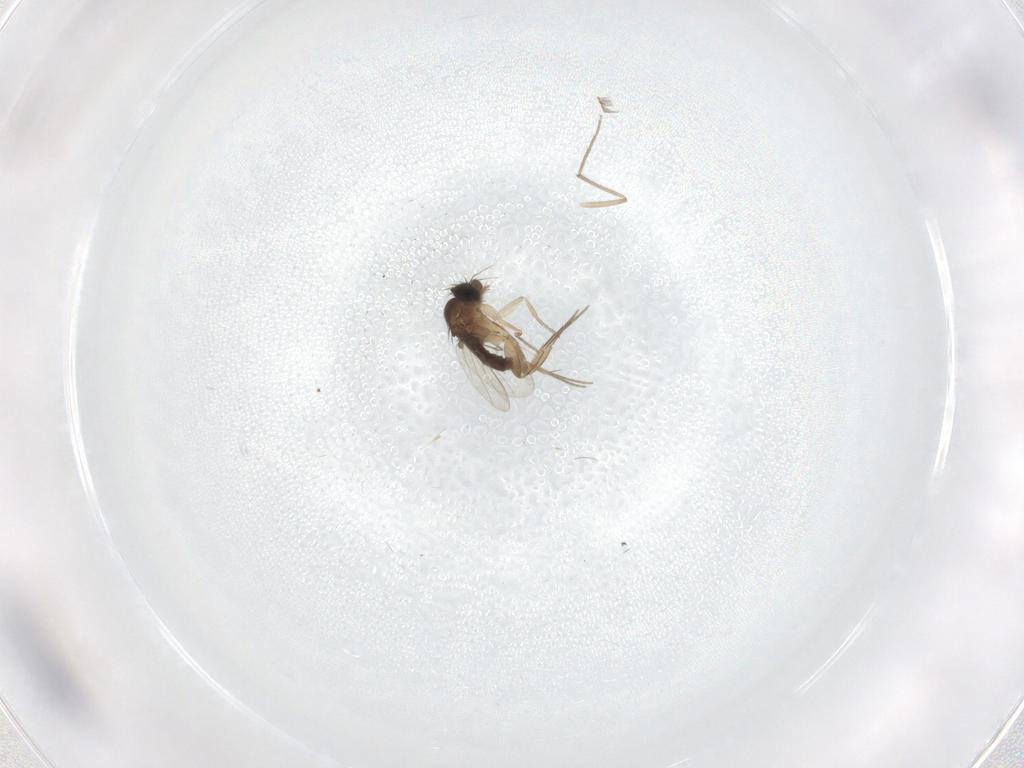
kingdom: Animalia
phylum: Arthropoda
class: Insecta
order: Diptera
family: Chironomidae
